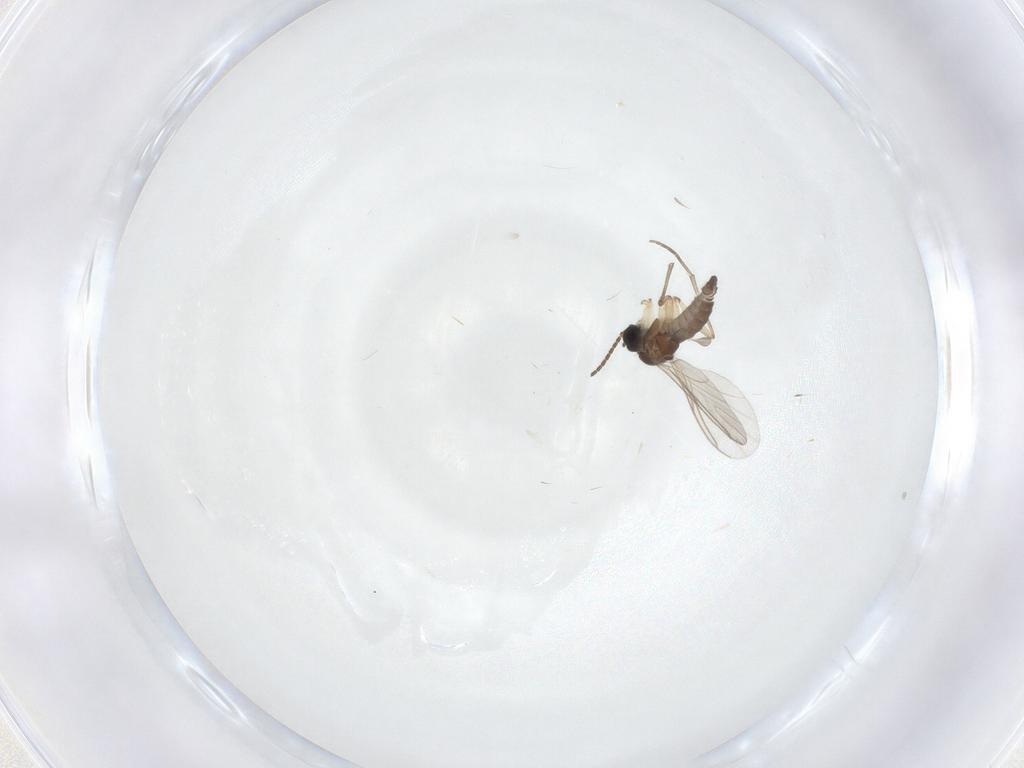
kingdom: Animalia
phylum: Arthropoda
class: Insecta
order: Diptera
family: Sciaridae
